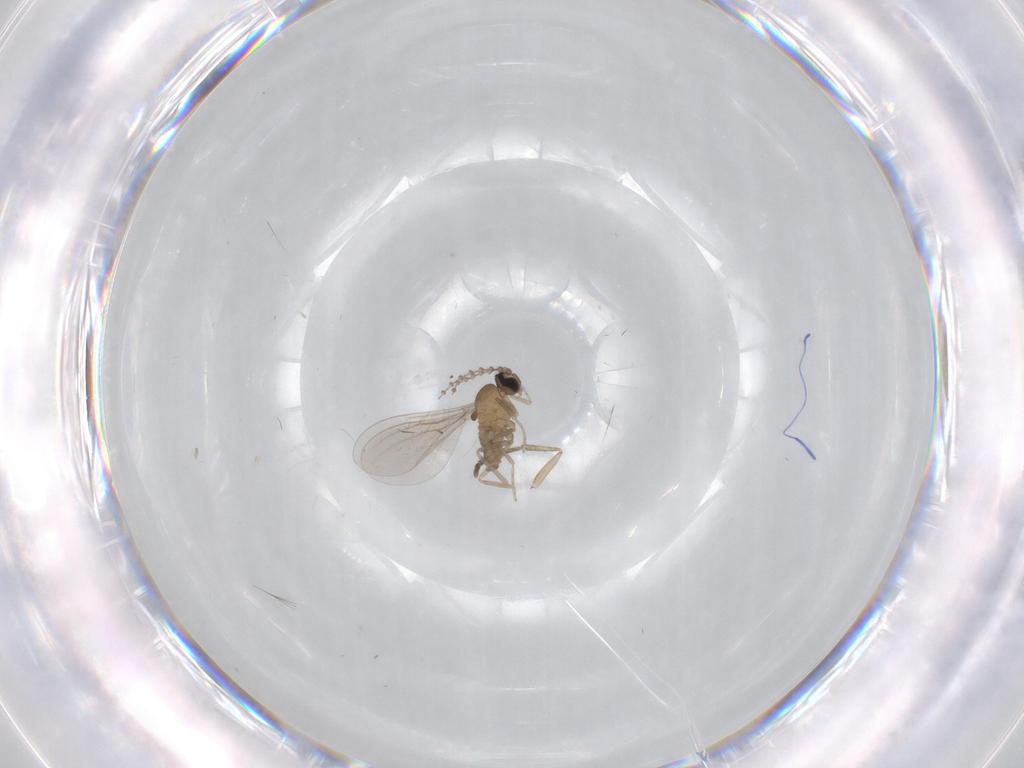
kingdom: Animalia
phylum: Arthropoda
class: Insecta
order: Diptera
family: Cecidomyiidae
